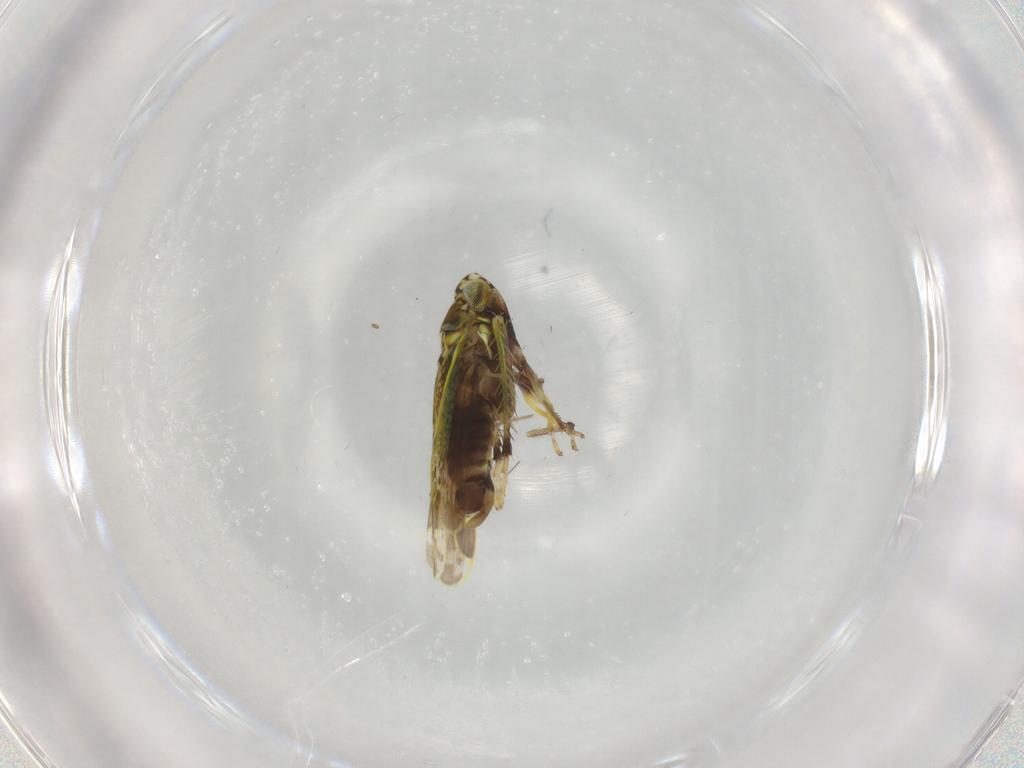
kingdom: Animalia
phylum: Arthropoda
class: Insecta
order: Hemiptera
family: Cicadellidae
